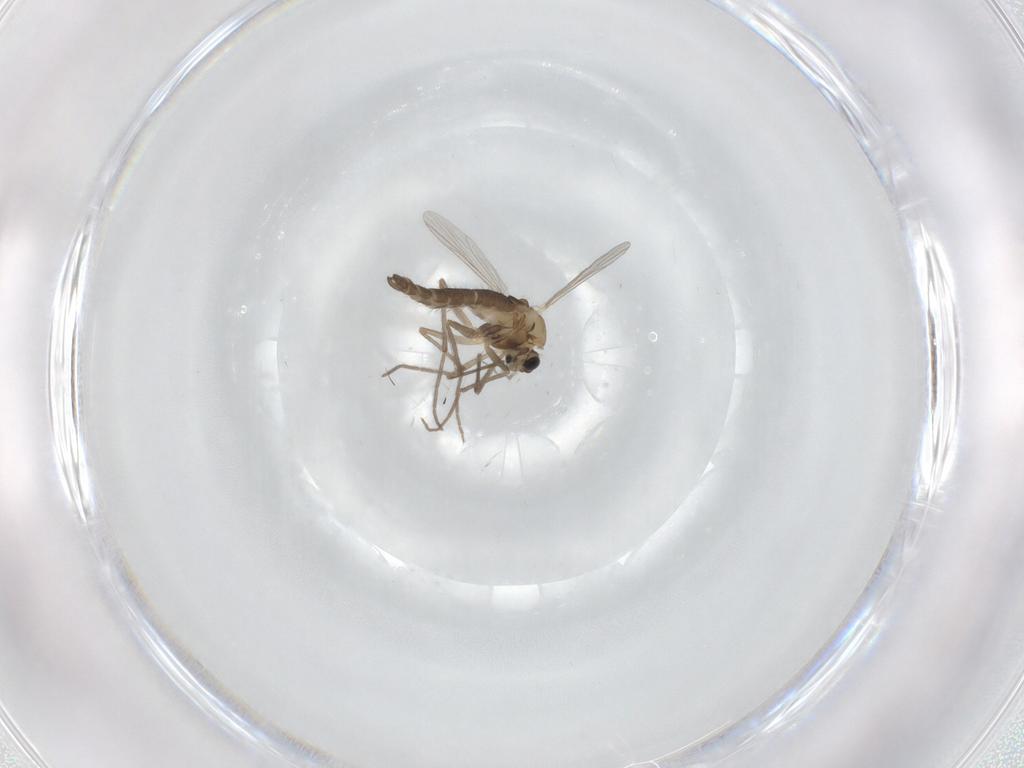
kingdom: Animalia
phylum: Arthropoda
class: Insecta
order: Diptera
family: Chironomidae
